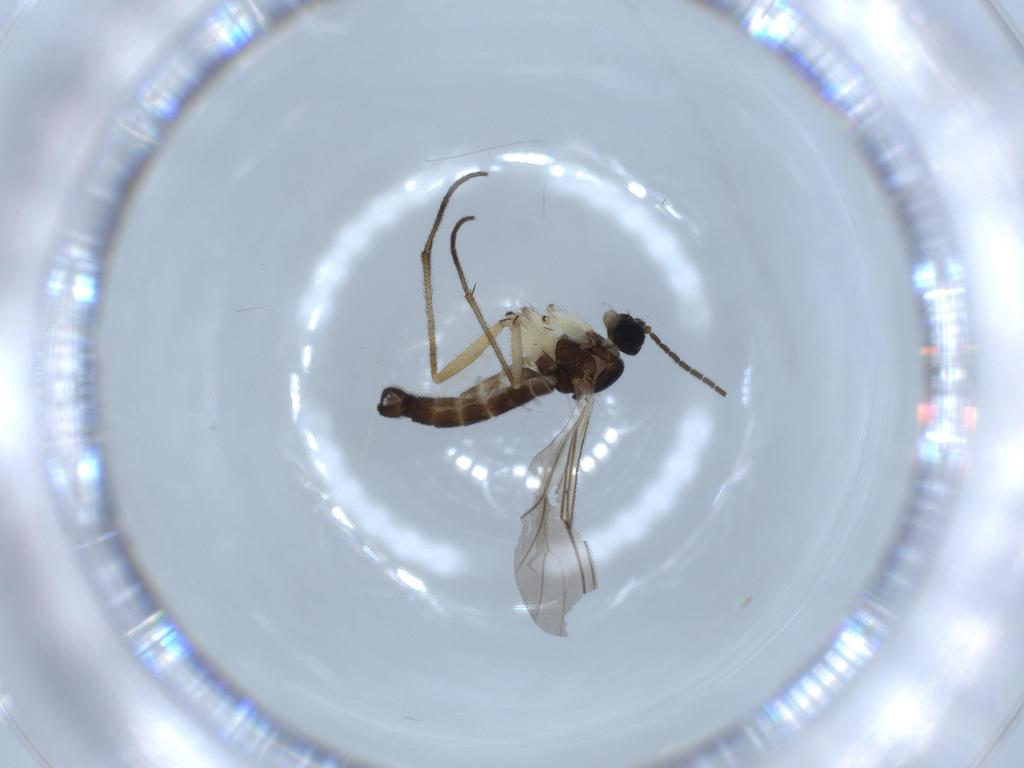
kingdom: Animalia
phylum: Arthropoda
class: Insecta
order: Diptera
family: Sciaridae
